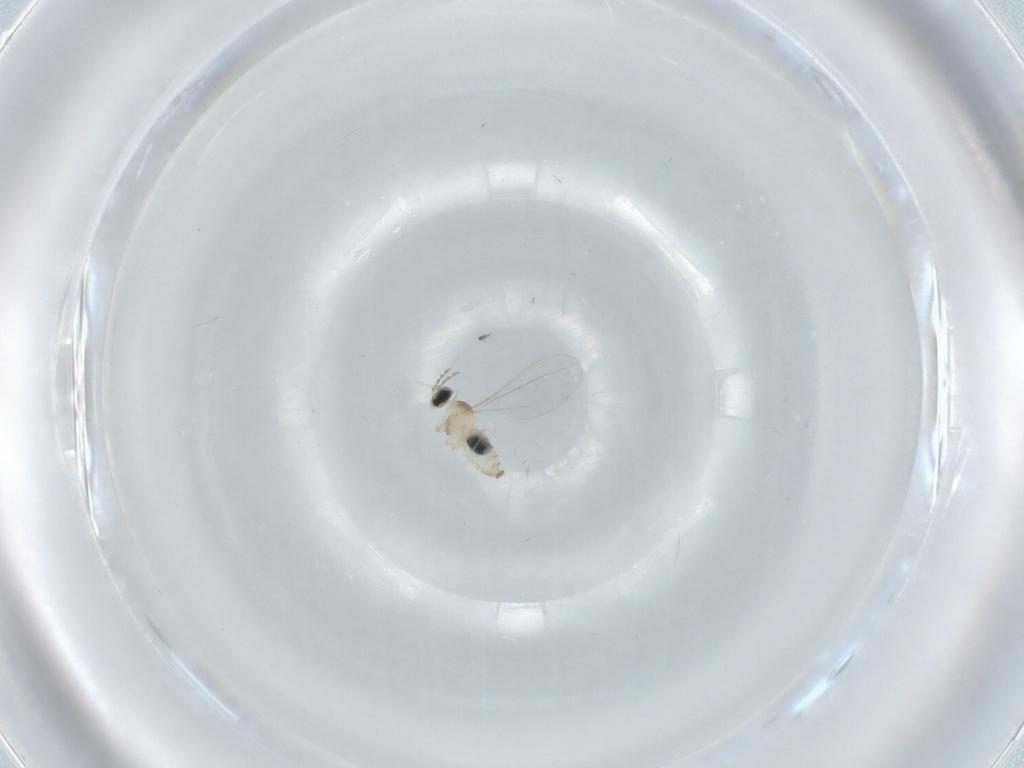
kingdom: Animalia
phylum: Arthropoda
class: Insecta
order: Diptera
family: Cecidomyiidae
